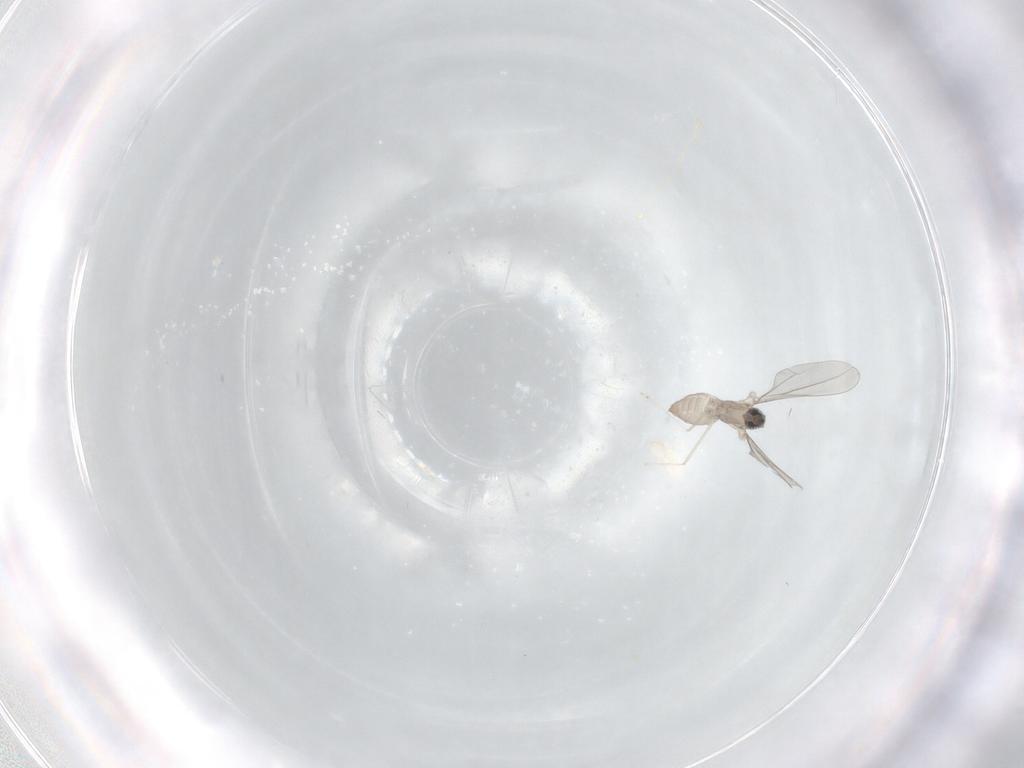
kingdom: Animalia
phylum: Arthropoda
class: Insecta
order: Diptera
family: Cecidomyiidae
